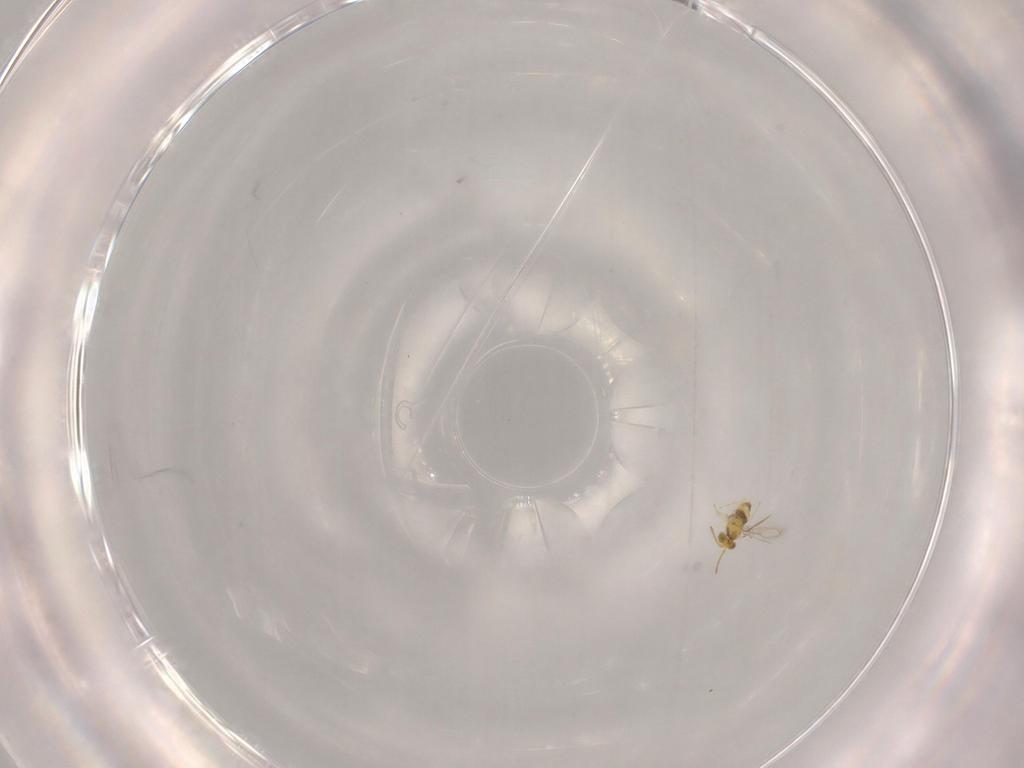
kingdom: Animalia
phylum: Arthropoda
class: Insecta
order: Hymenoptera
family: Aphelinidae
